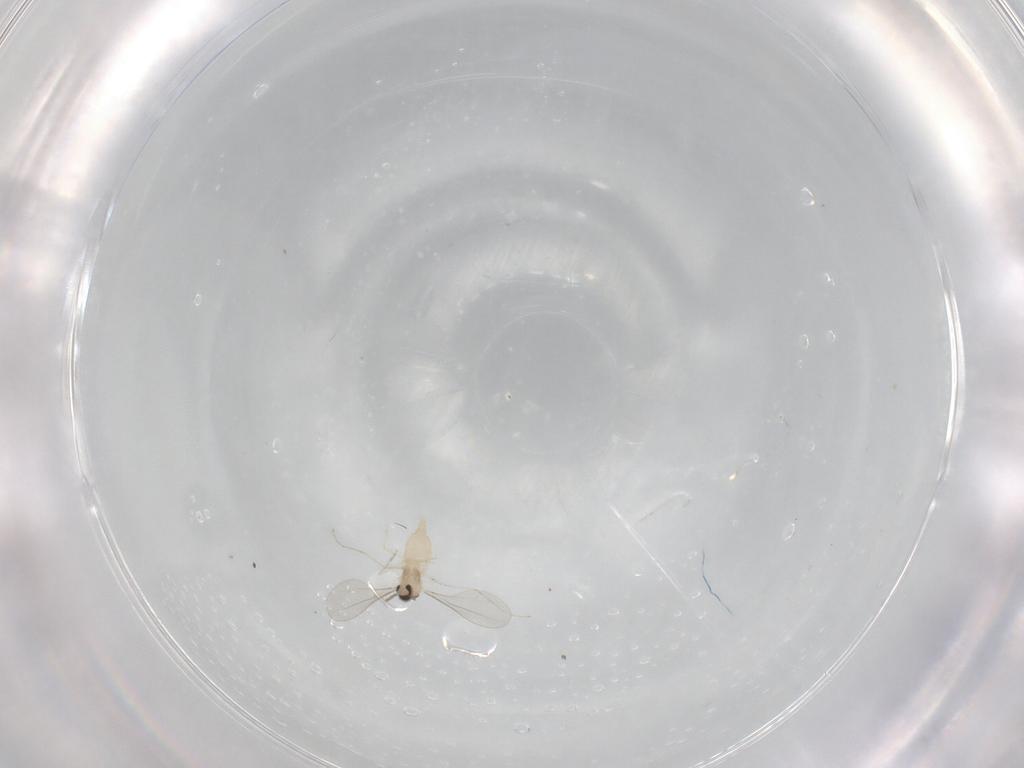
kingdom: Animalia
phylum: Arthropoda
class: Insecta
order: Diptera
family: Cecidomyiidae
